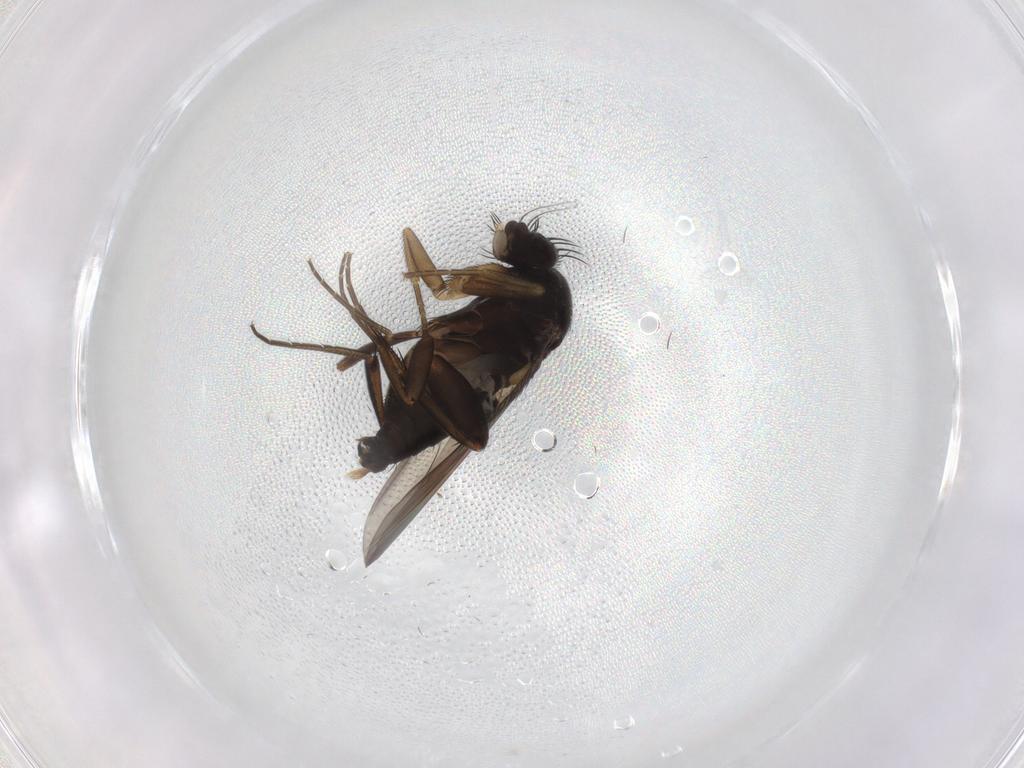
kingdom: Animalia
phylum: Arthropoda
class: Insecta
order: Diptera
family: Phoridae
